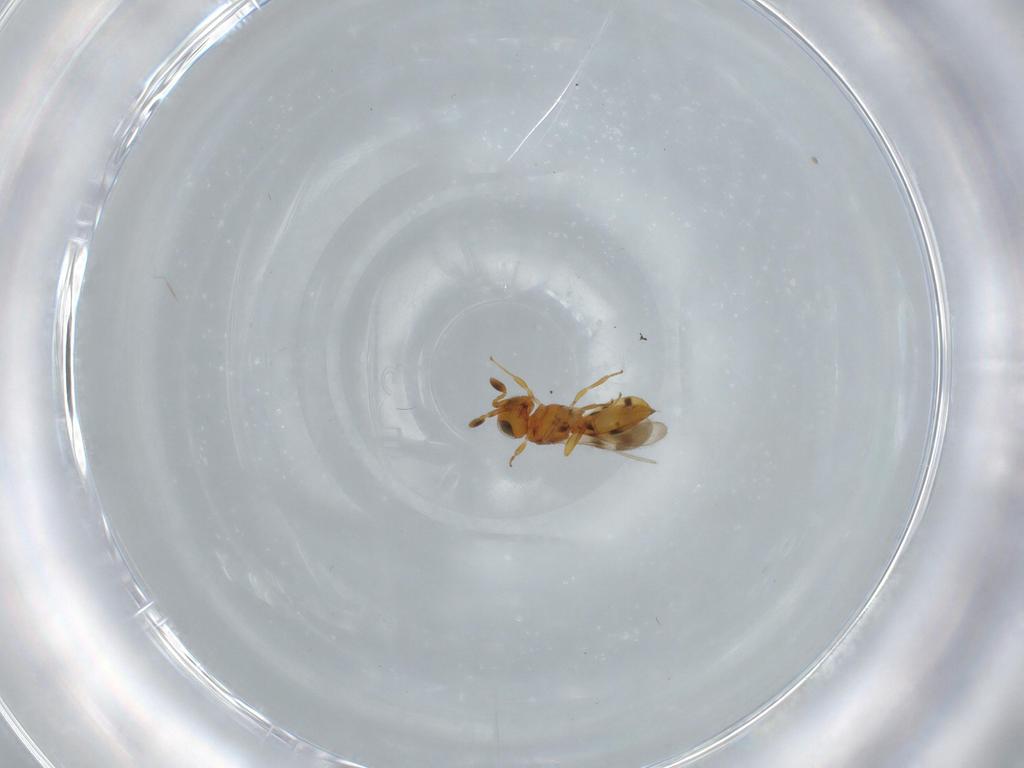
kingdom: Animalia
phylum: Arthropoda
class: Insecta
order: Hymenoptera
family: Scelionidae
